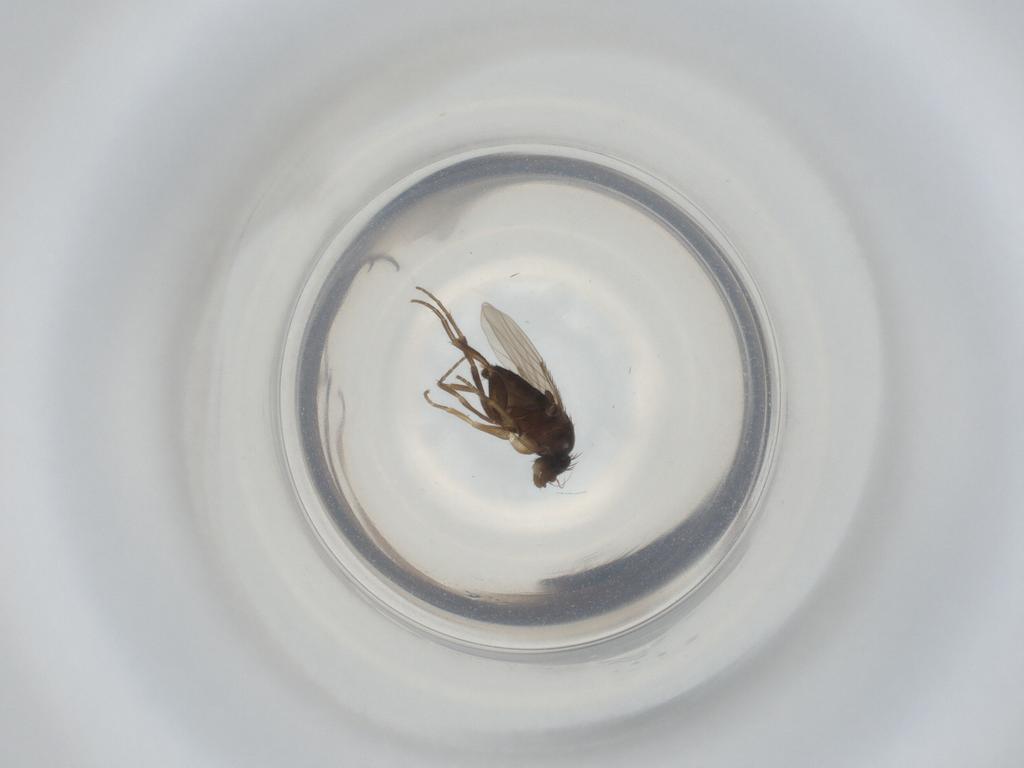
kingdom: Animalia
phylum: Arthropoda
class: Insecta
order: Diptera
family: Phoridae
